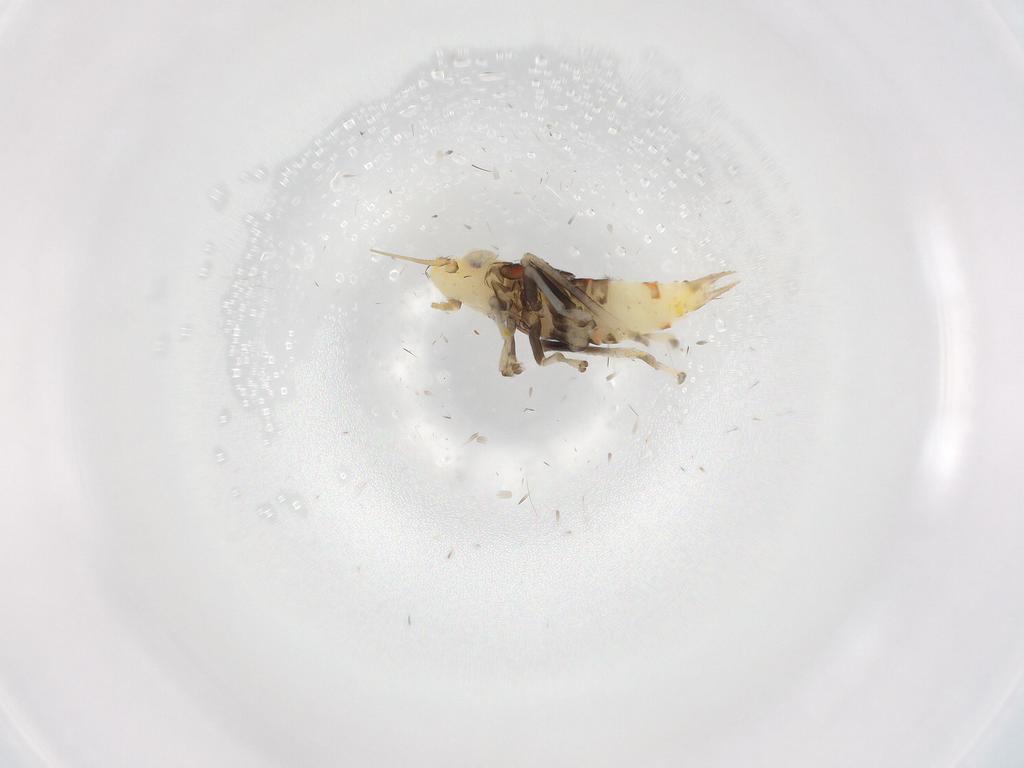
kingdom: Animalia
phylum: Arthropoda
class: Insecta
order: Hemiptera
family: Cicadellidae
